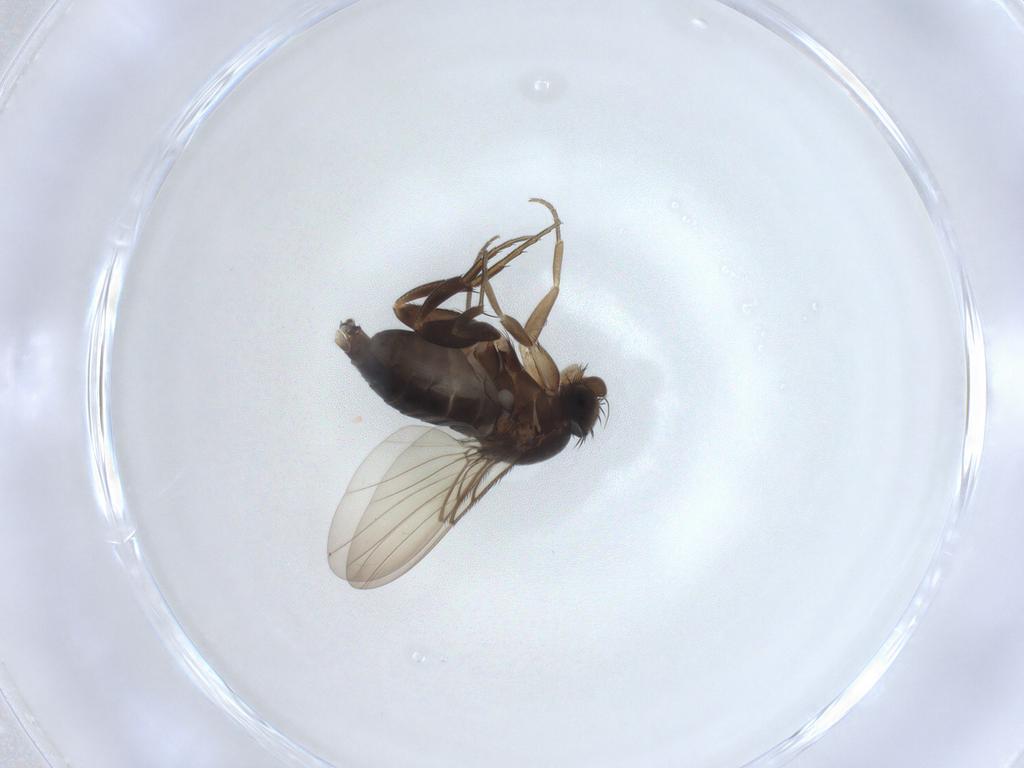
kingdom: Animalia
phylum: Arthropoda
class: Insecta
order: Diptera
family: Phoridae
